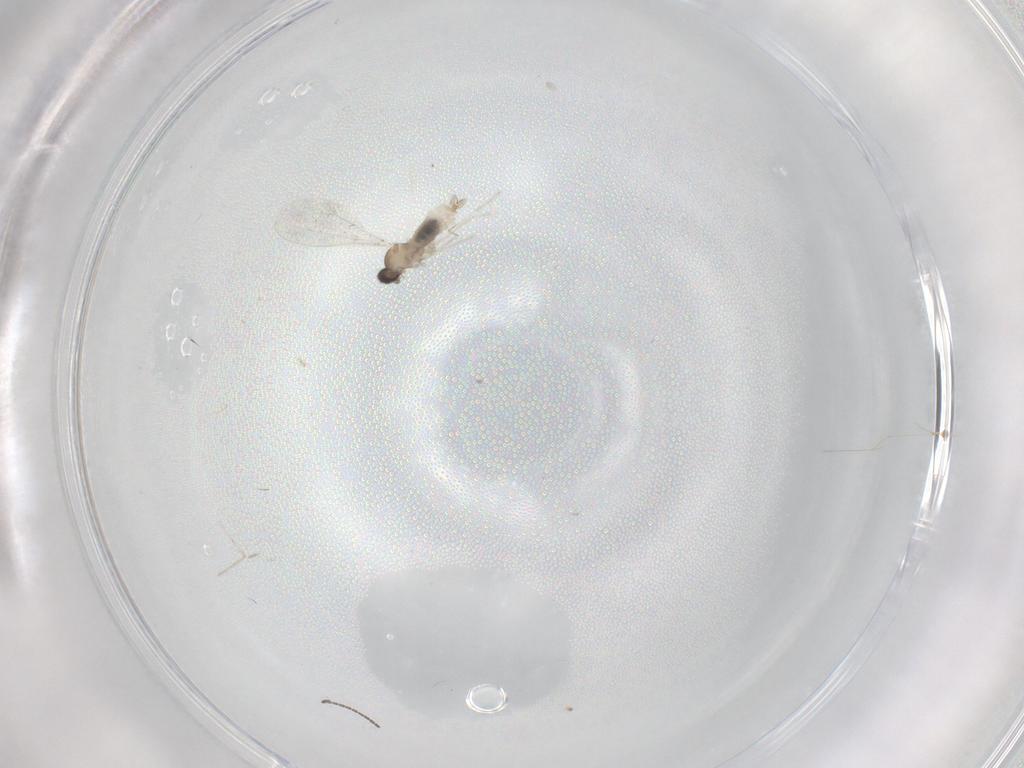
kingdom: Animalia
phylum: Arthropoda
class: Insecta
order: Diptera
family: Cecidomyiidae
